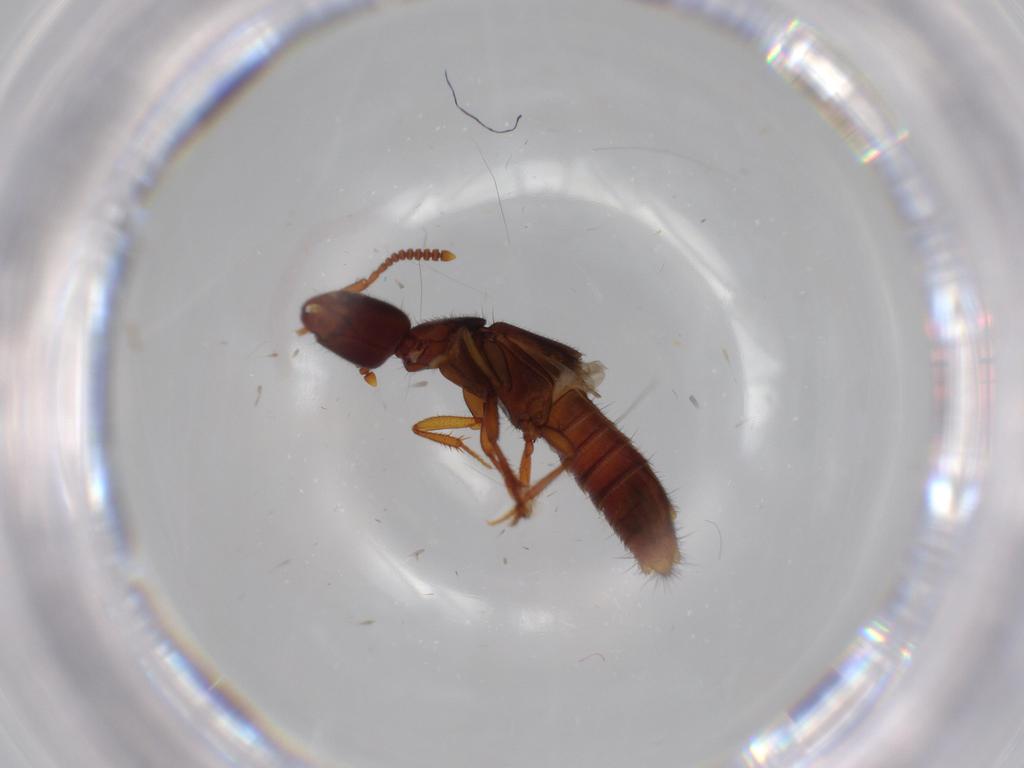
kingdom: Animalia
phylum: Arthropoda
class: Insecta
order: Coleoptera
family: Staphylinidae
